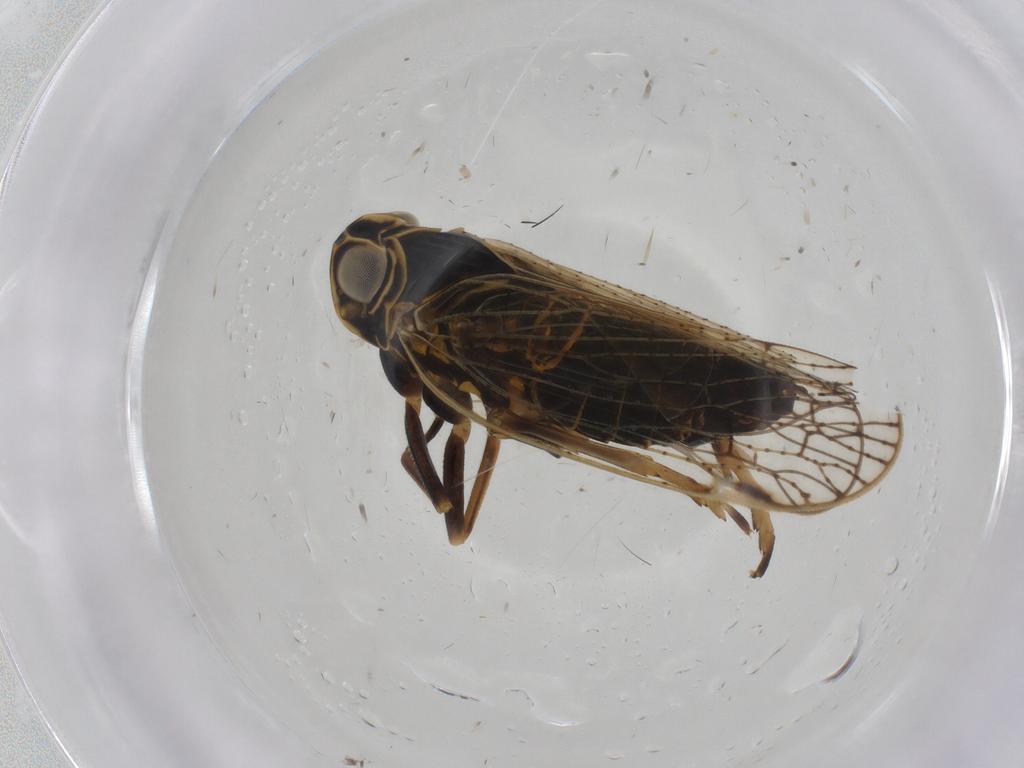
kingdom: Animalia
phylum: Arthropoda
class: Insecta
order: Hemiptera
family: Cixiidae
